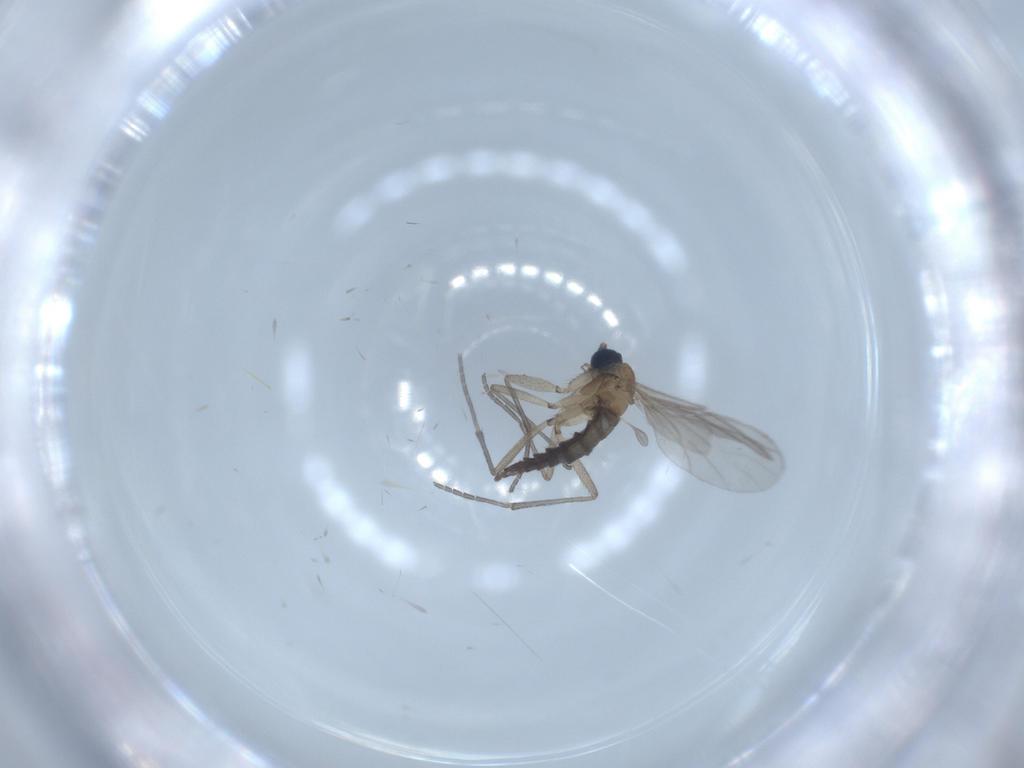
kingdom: Animalia
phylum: Arthropoda
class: Insecta
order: Diptera
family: Sciaridae
